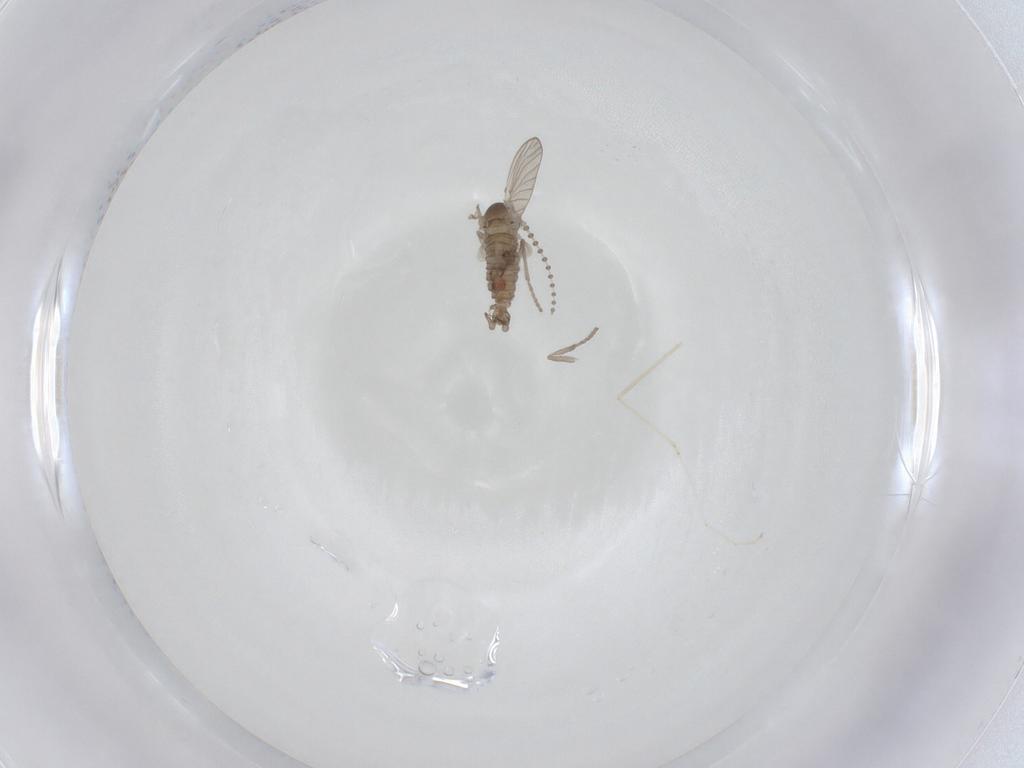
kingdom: Animalia
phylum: Arthropoda
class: Insecta
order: Diptera
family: Psychodidae
